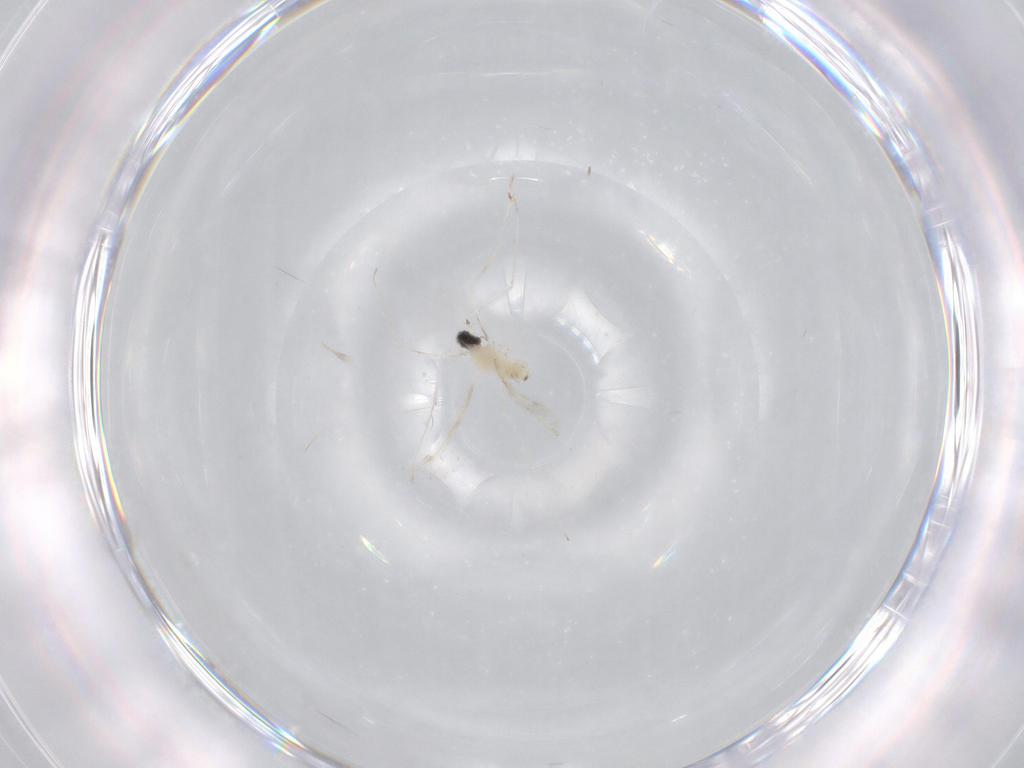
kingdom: Animalia
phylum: Arthropoda
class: Insecta
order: Diptera
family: Cecidomyiidae
